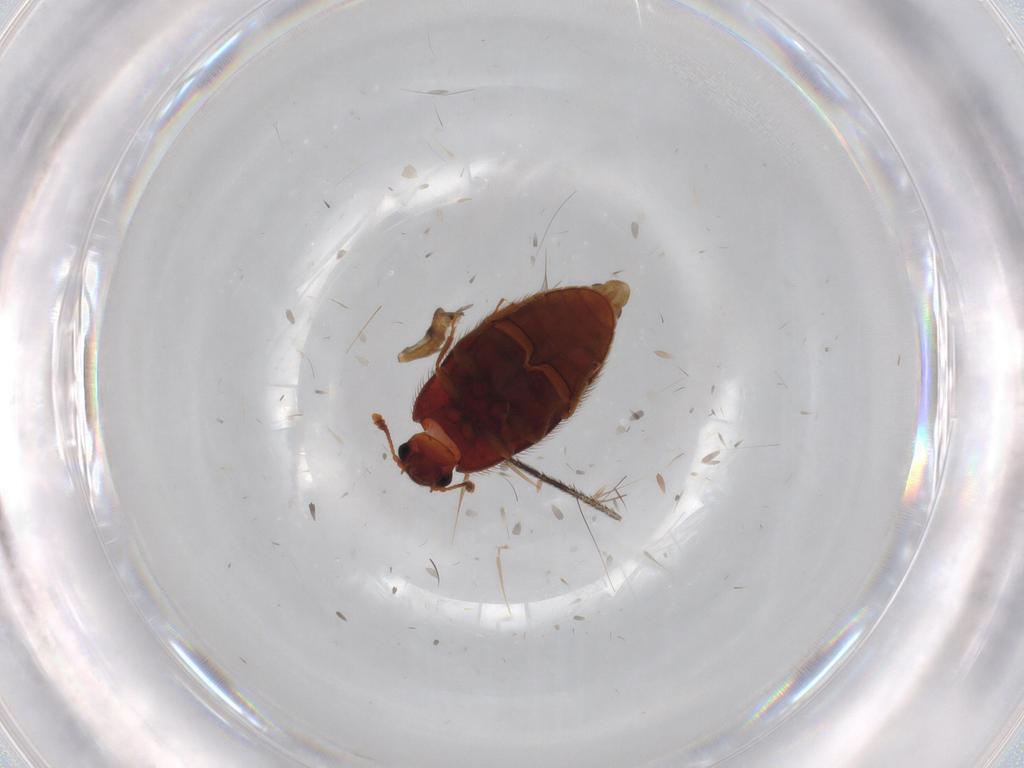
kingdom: Animalia
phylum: Arthropoda
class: Insecta
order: Coleoptera
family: Biphyllidae
